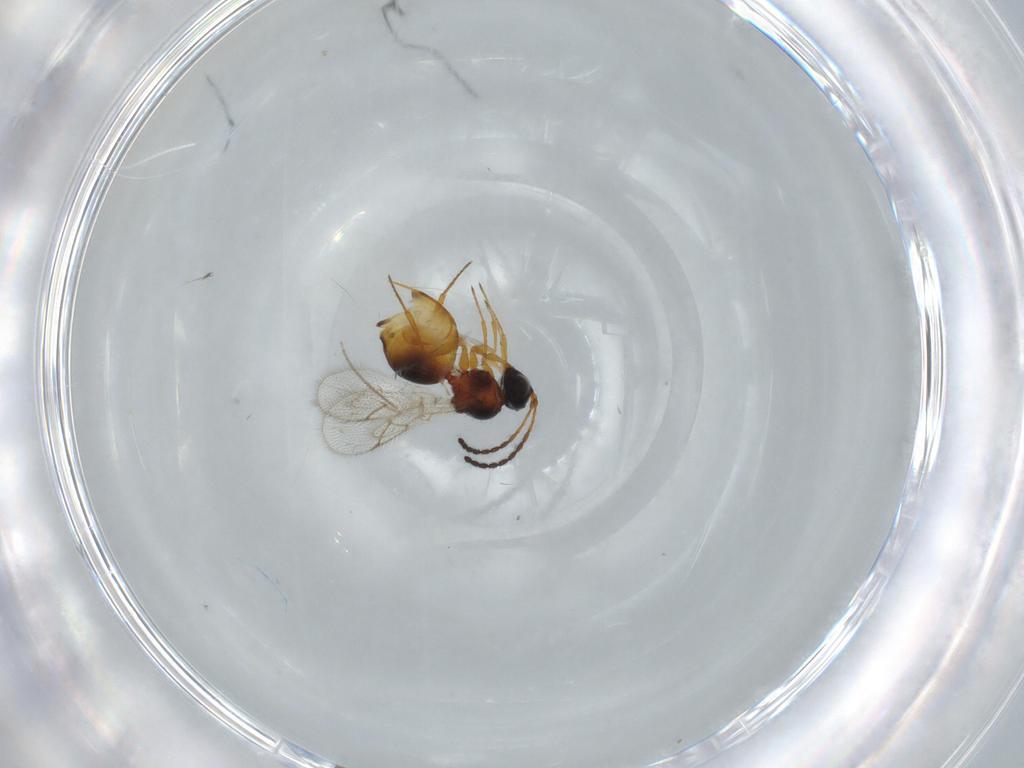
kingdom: Animalia
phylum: Arthropoda
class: Insecta
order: Hymenoptera
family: Figitidae
